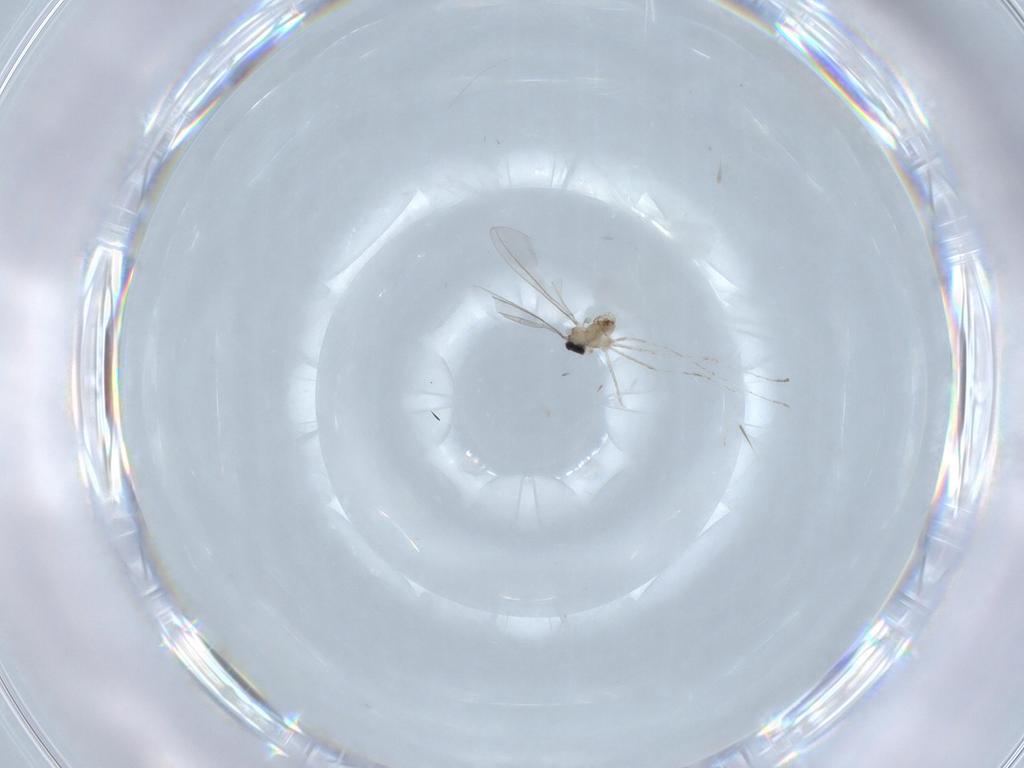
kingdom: Animalia
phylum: Arthropoda
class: Insecta
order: Diptera
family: Cecidomyiidae
